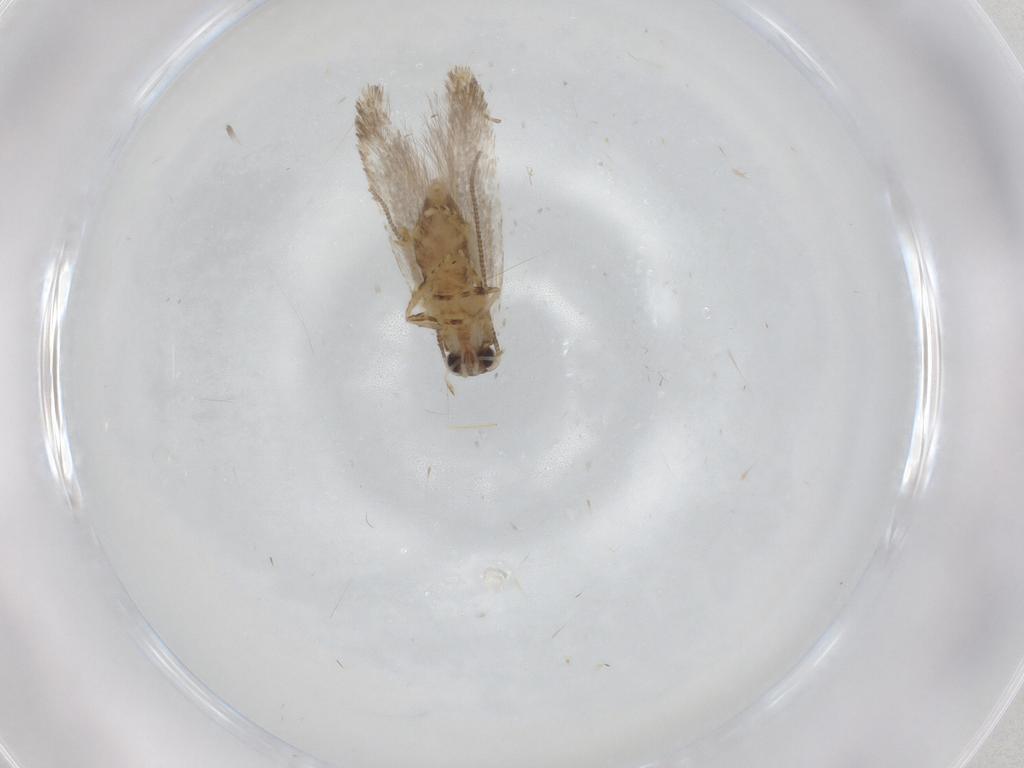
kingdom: Animalia
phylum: Arthropoda
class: Insecta
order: Lepidoptera
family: Tineidae
